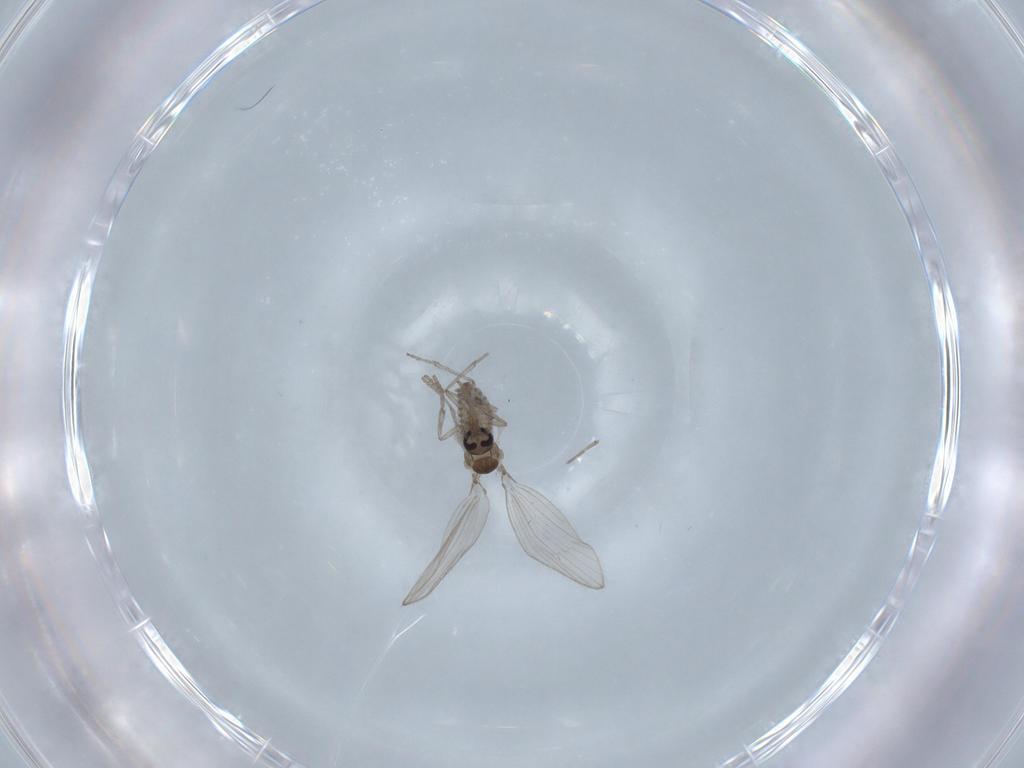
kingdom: Animalia
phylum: Arthropoda
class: Insecta
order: Diptera
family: Psychodidae
